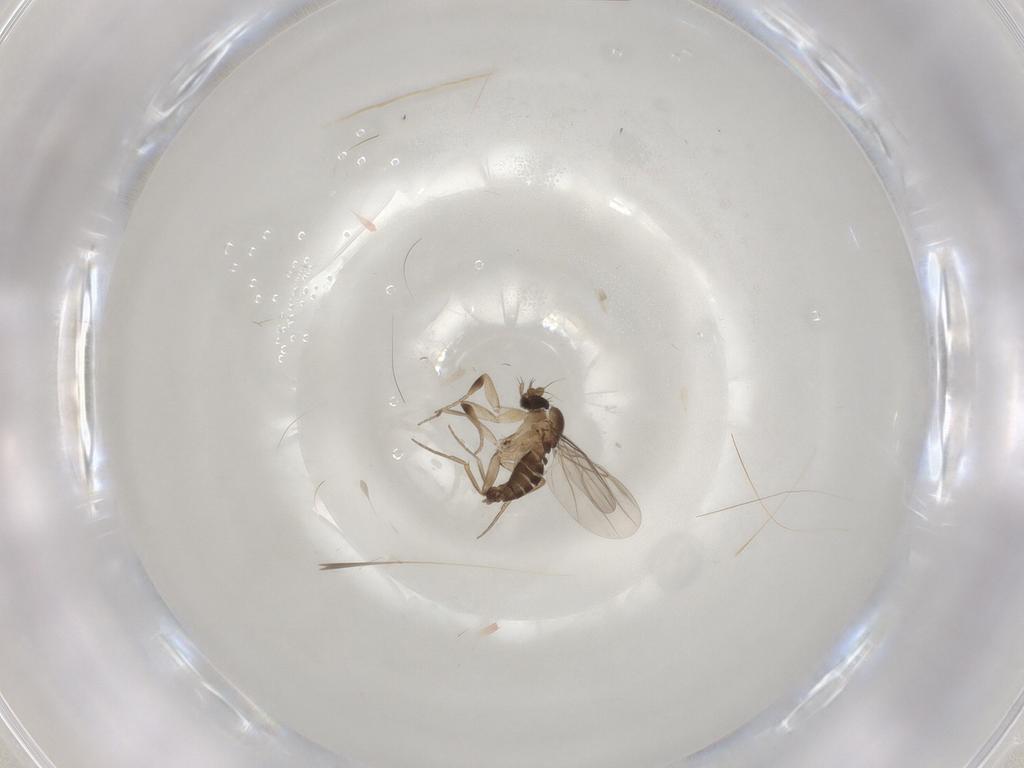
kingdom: Animalia
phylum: Arthropoda
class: Insecta
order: Diptera
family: Phoridae
